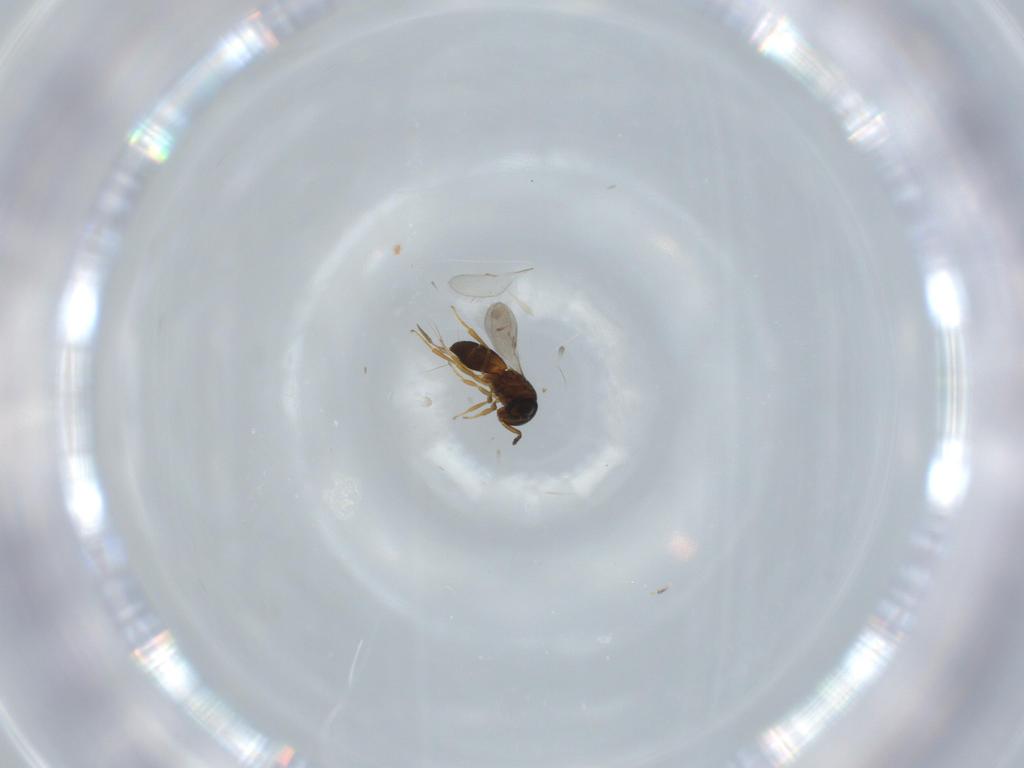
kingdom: Animalia
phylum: Arthropoda
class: Insecta
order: Hymenoptera
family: Scelionidae
